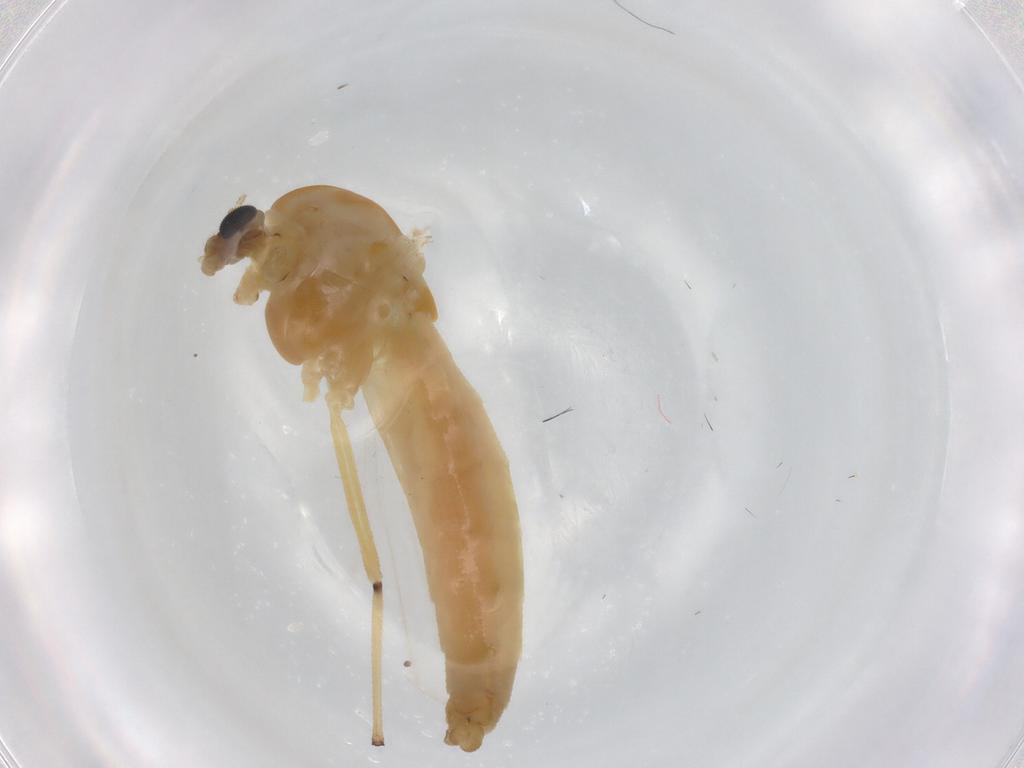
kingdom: Animalia
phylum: Arthropoda
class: Insecta
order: Diptera
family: Chironomidae
